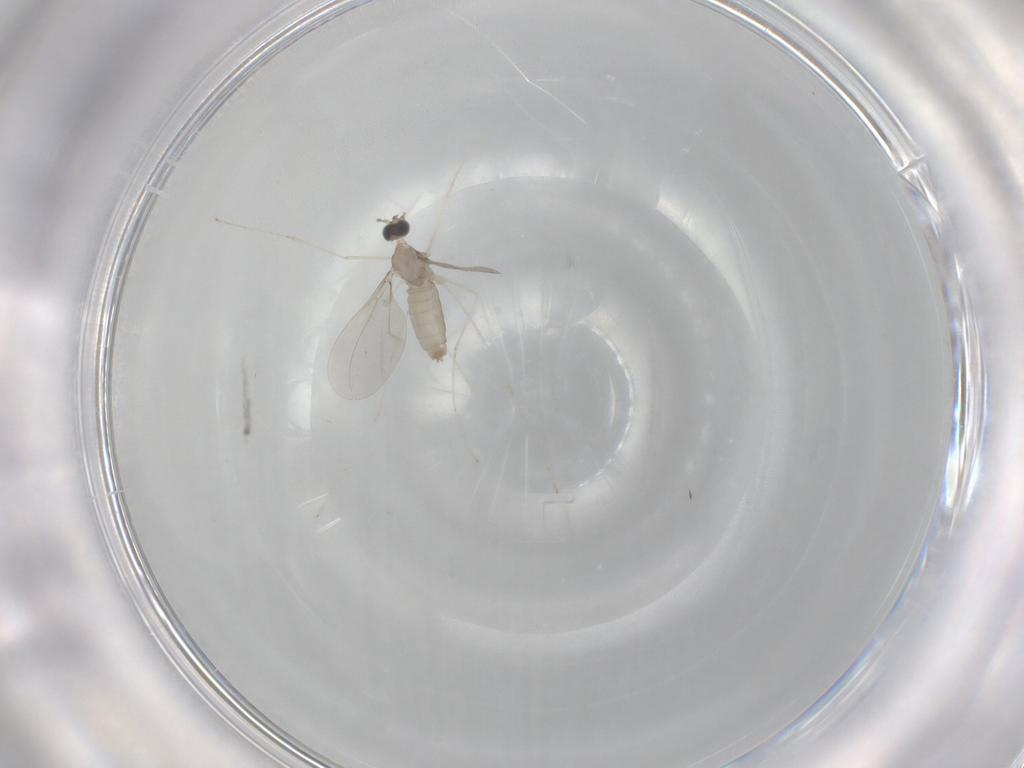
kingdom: Animalia
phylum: Arthropoda
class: Insecta
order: Diptera
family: Cecidomyiidae
